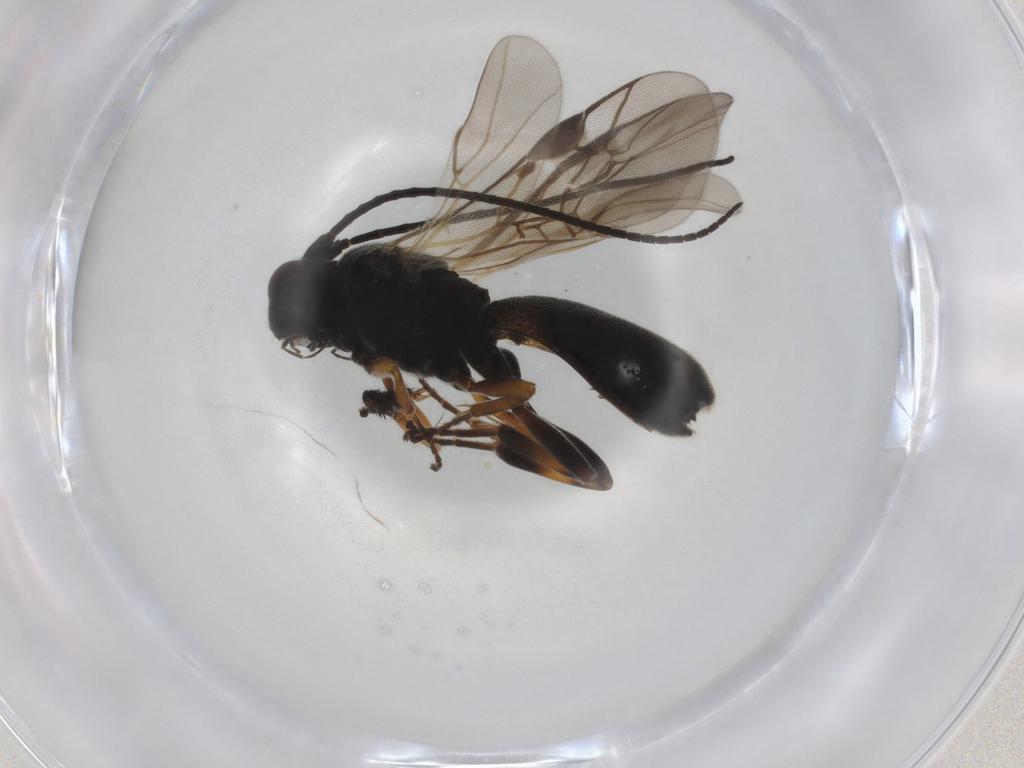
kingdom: Animalia
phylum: Arthropoda
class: Insecta
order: Hymenoptera
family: Braconidae
